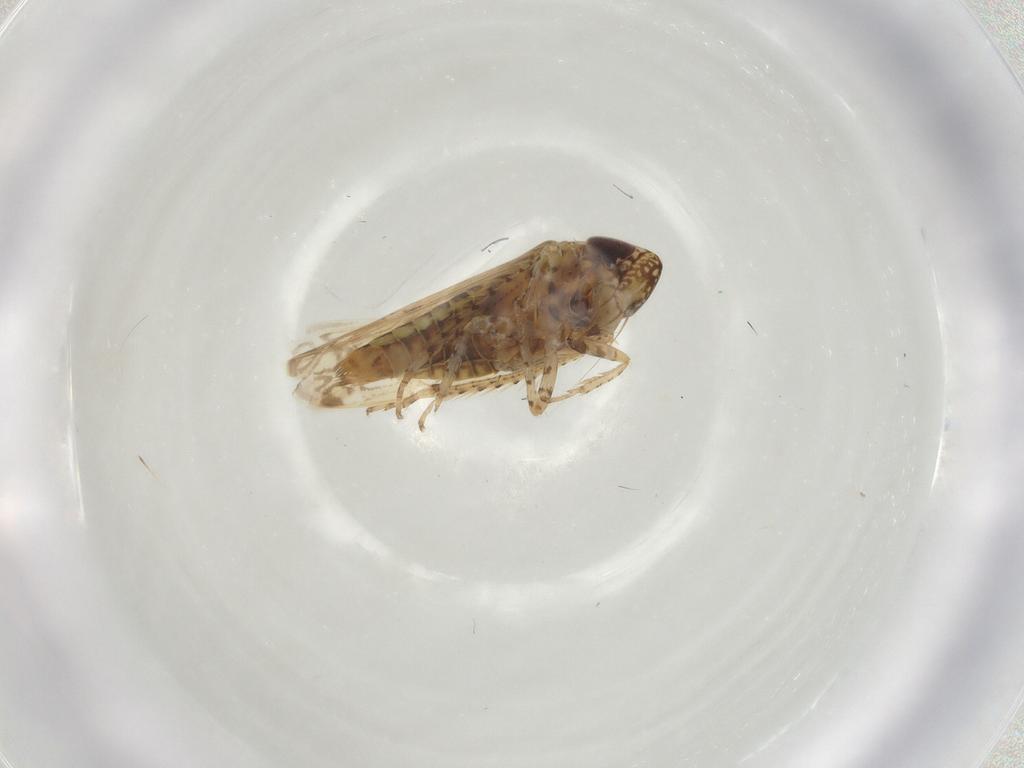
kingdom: Animalia
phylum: Arthropoda
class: Insecta
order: Hemiptera
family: Cicadellidae
